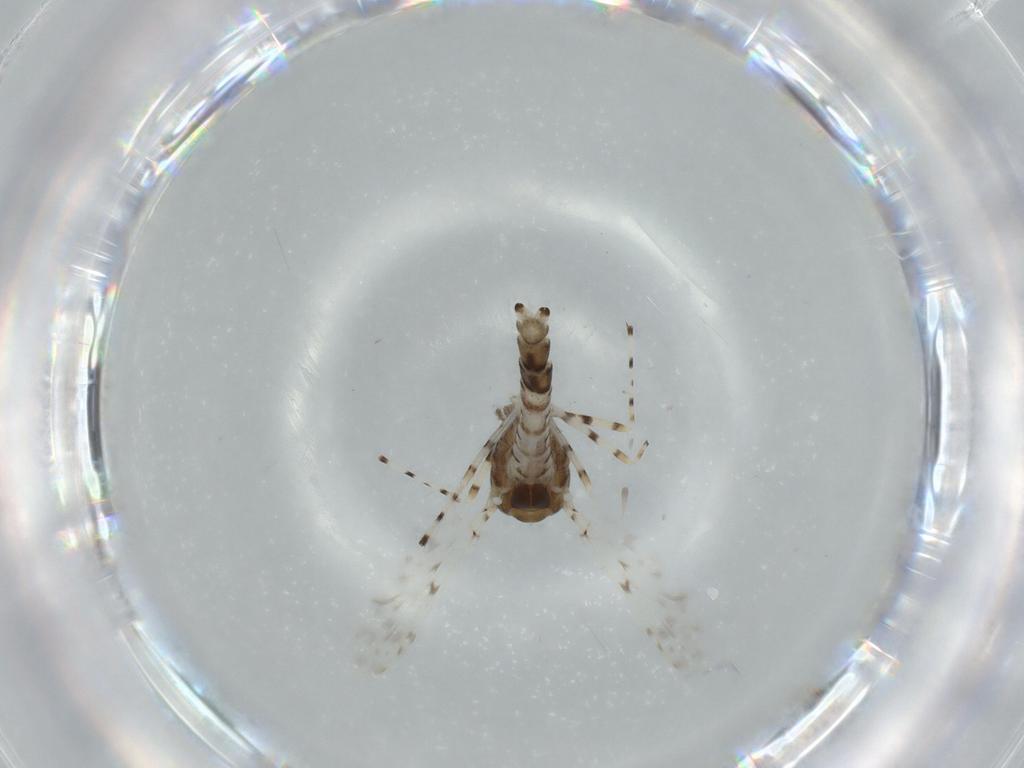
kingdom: Animalia
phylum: Arthropoda
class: Insecta
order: Diptera
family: Chironomidae
